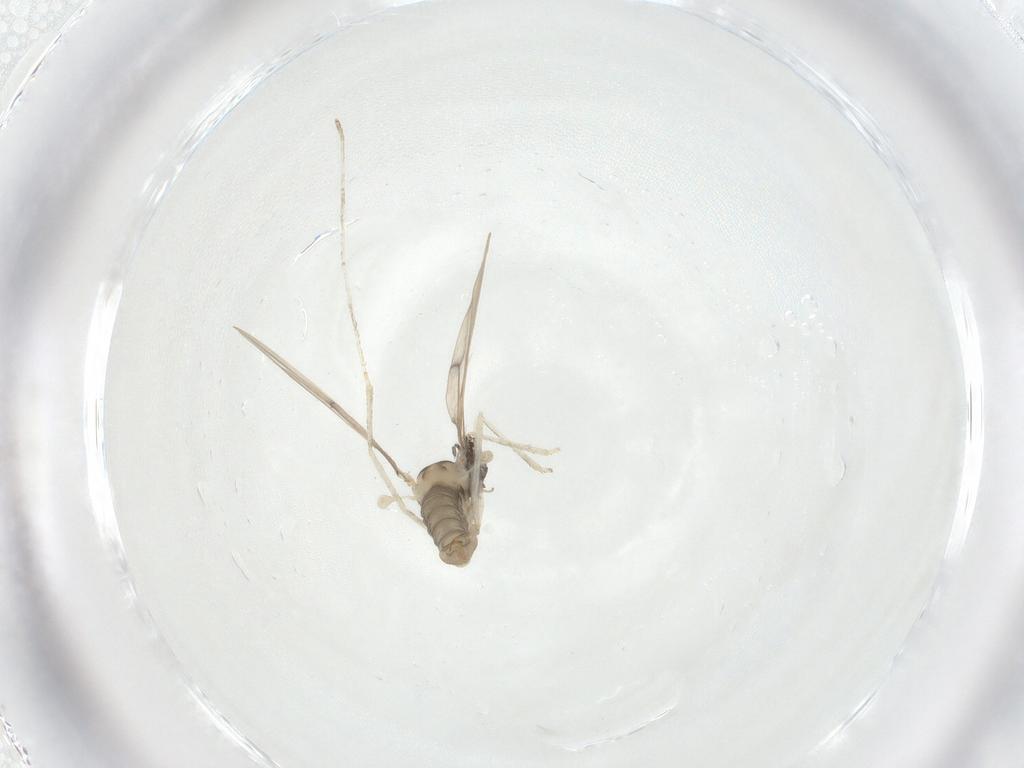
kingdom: Animalia
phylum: Arthropoda
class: Insecta
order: Diptera
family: Cecidomyiidae
